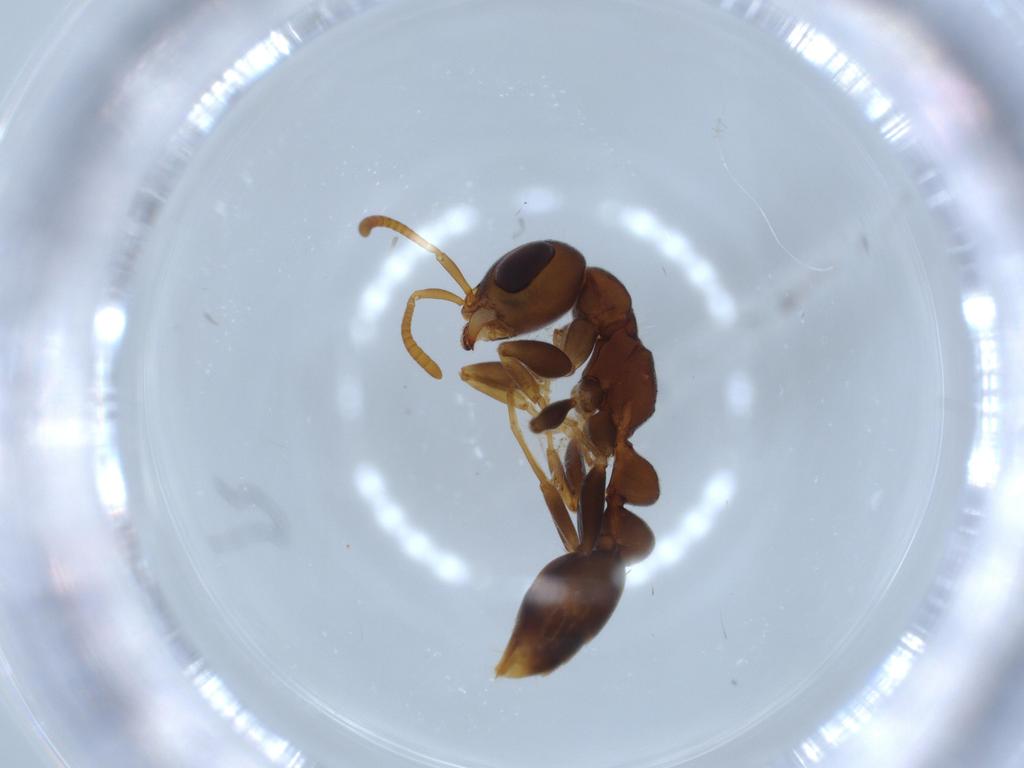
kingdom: Animalia
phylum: Arthropoda
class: Insecta
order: Hymenoptera
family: Formicidae
